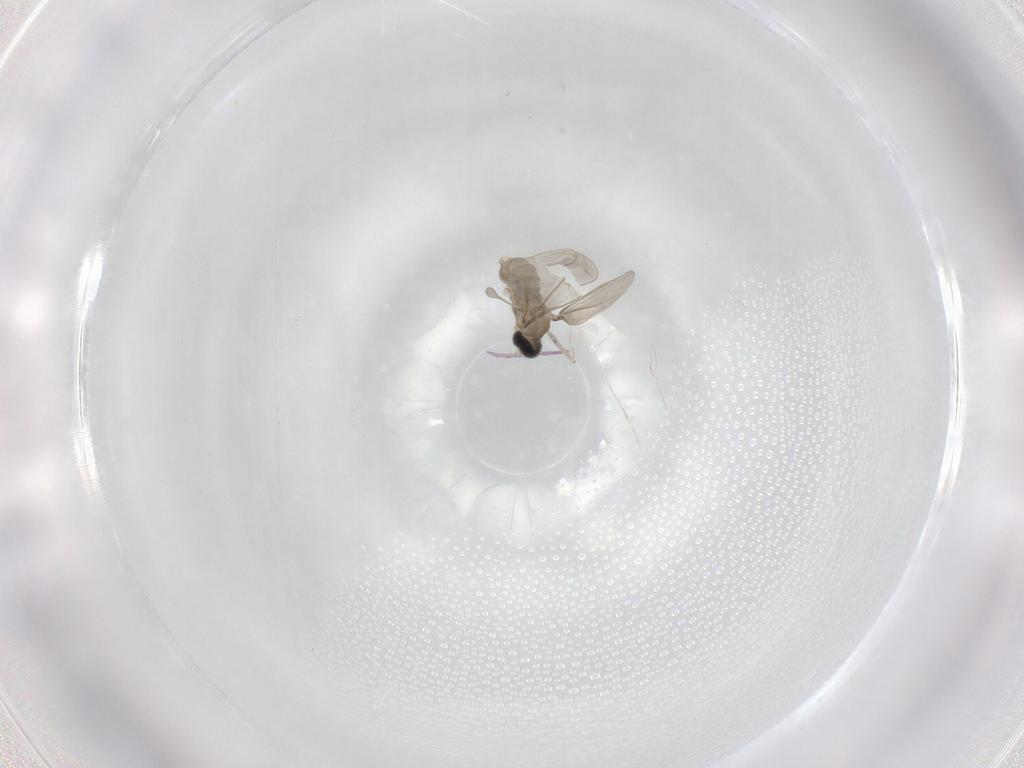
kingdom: Animalia
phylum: Arthropoda
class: Insecta
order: Diptera
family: Cecidomyiidae
